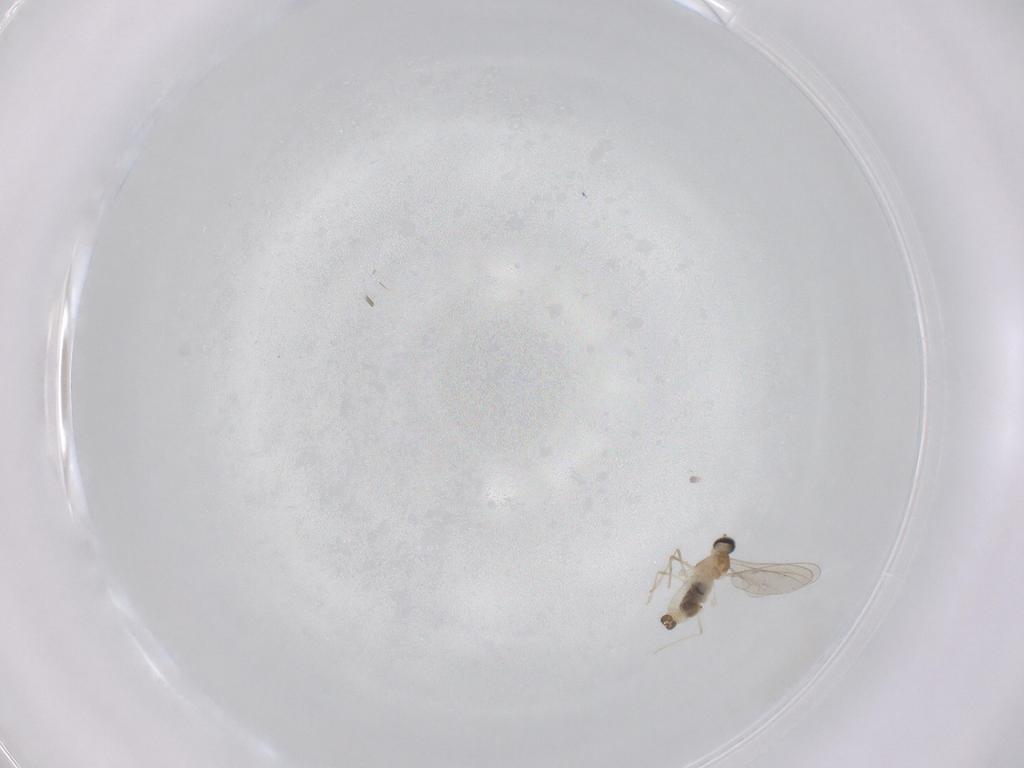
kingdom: Animalia
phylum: Arthropoda
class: Insecta
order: Diptera
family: Cecidomyiidae
